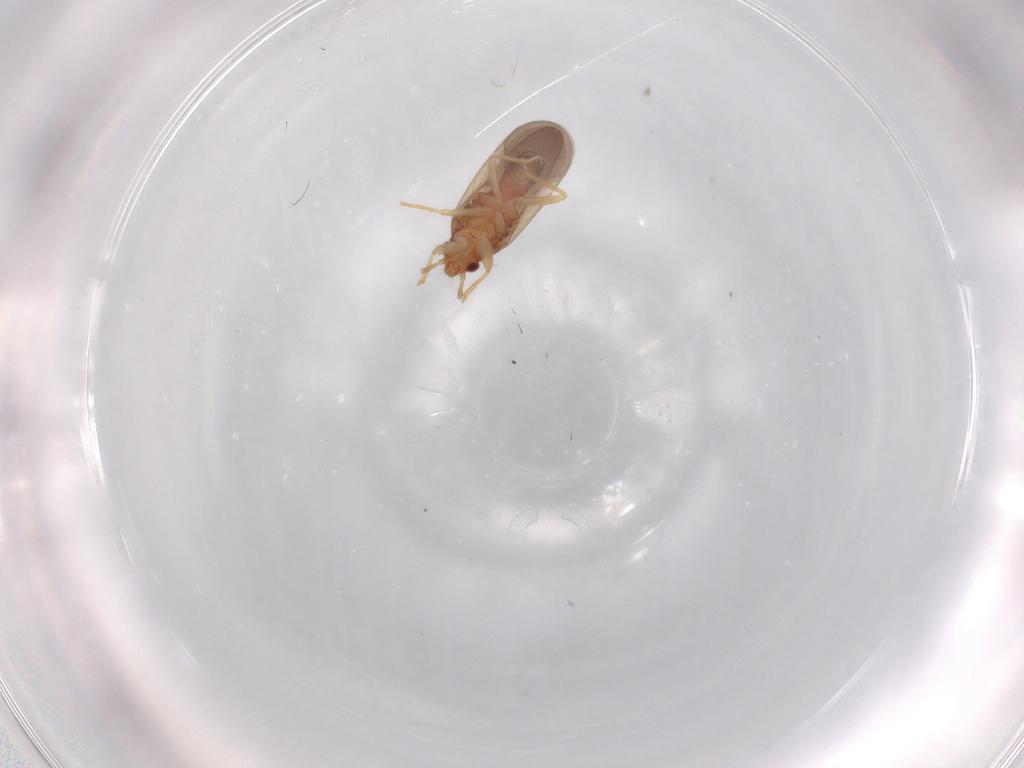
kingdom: Animalia
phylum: Arthropoda
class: Insecta
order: Hemiptera
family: Ceratocombidae
